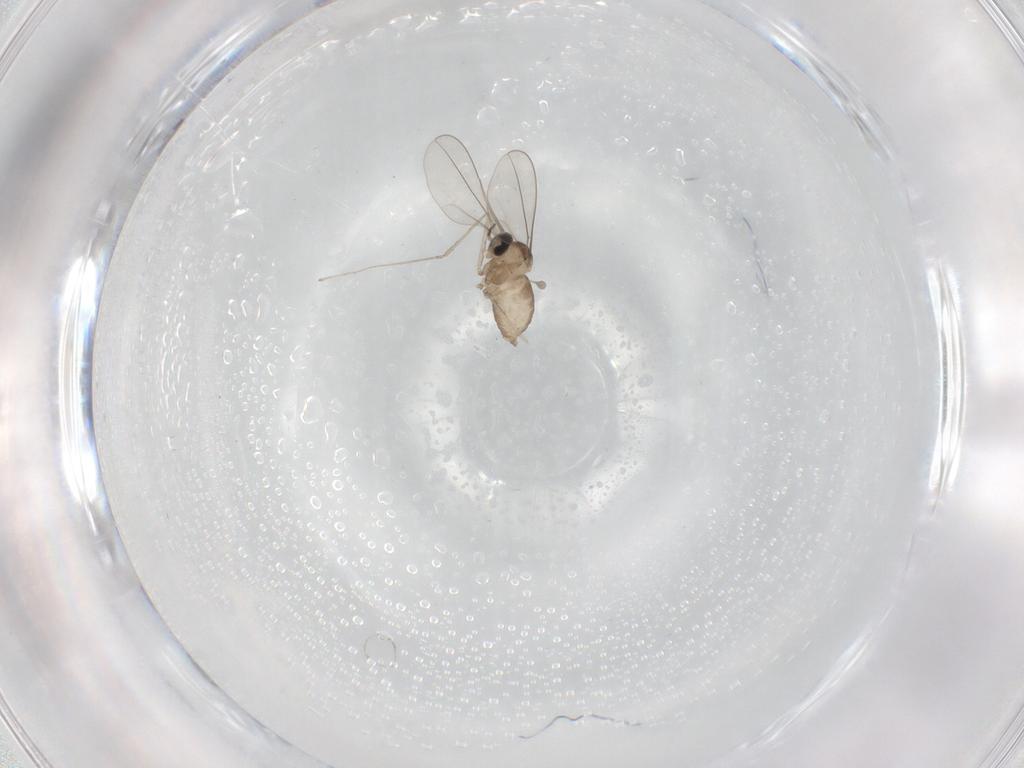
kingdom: Animalia
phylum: Arthropoda
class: Insecta
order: Diptera
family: Cecidomyiidae
